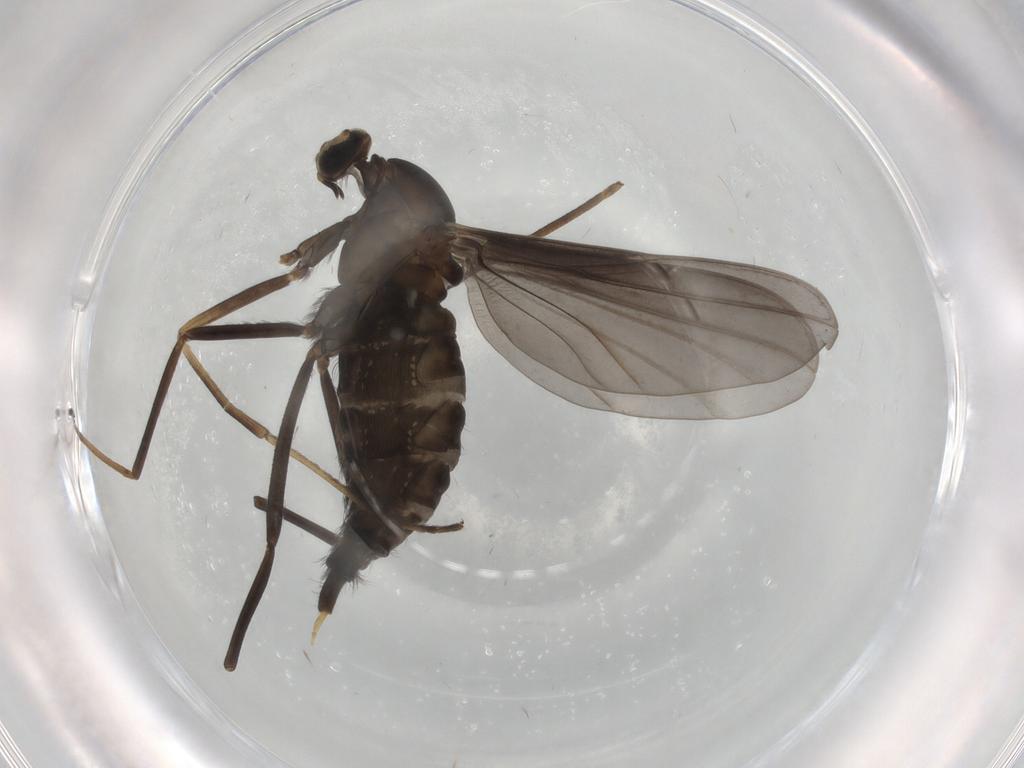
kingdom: Animalia
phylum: Arthropoda
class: Insecta
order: Diptera
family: Cecidomyiidae
